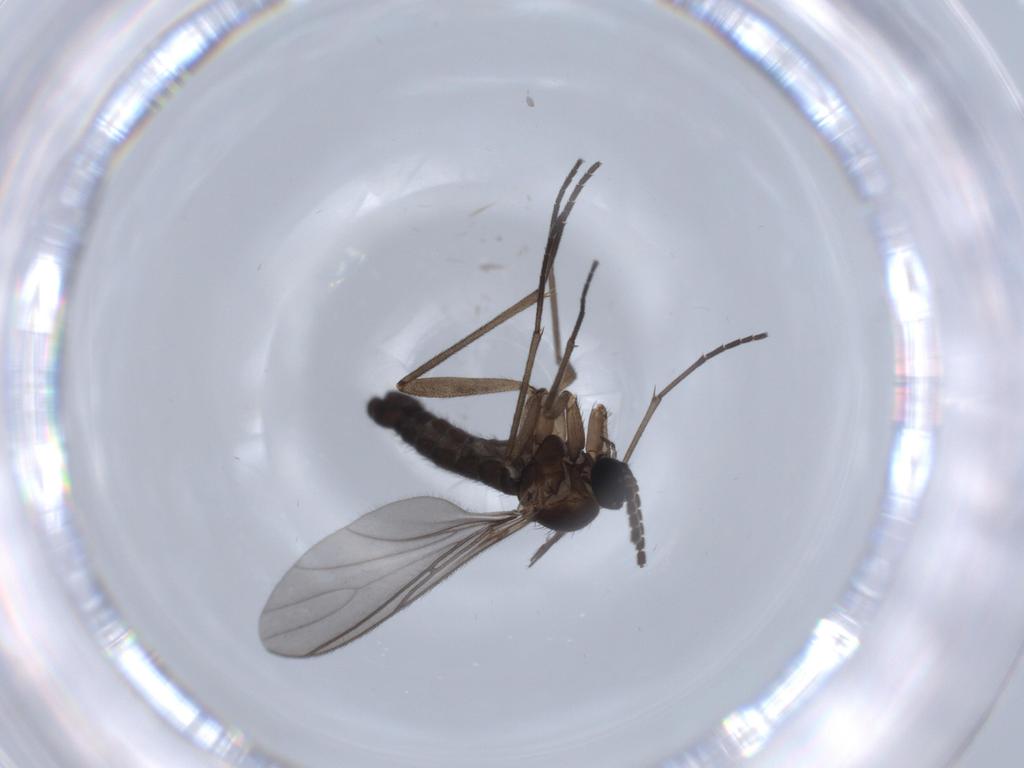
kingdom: Animalia
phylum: Arthropoda
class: Insecta
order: Diptera
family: Sciaridae
